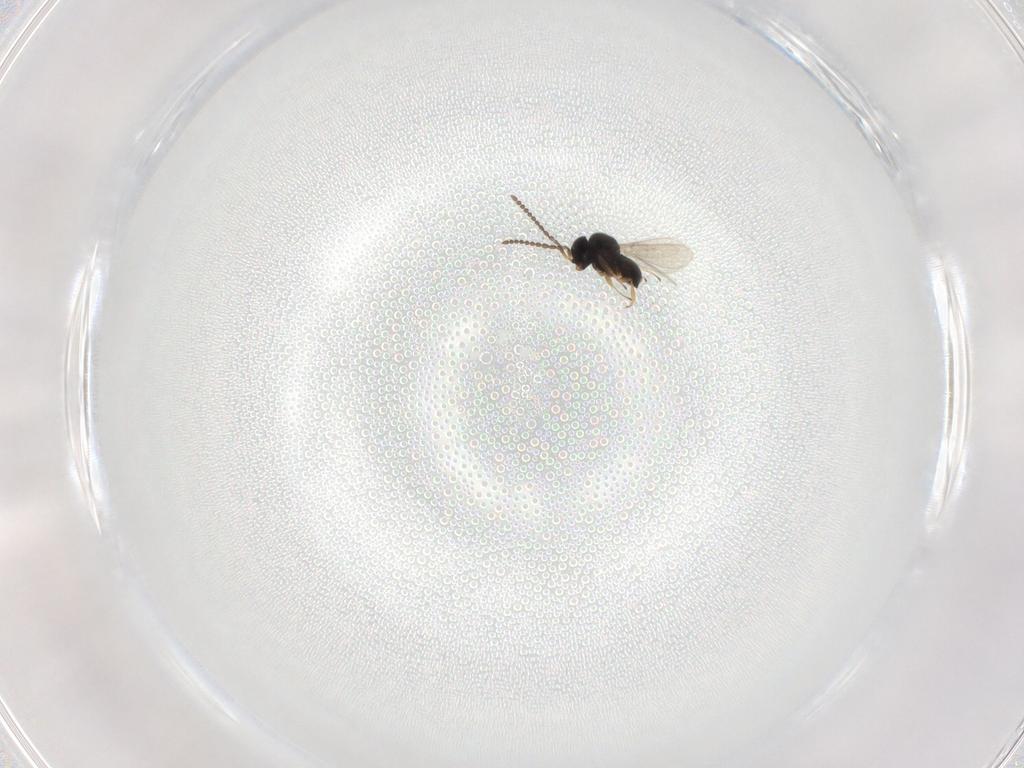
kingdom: Animalia
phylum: Arthropoda
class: Insecta
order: Hymenoptera
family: Scelionidae
